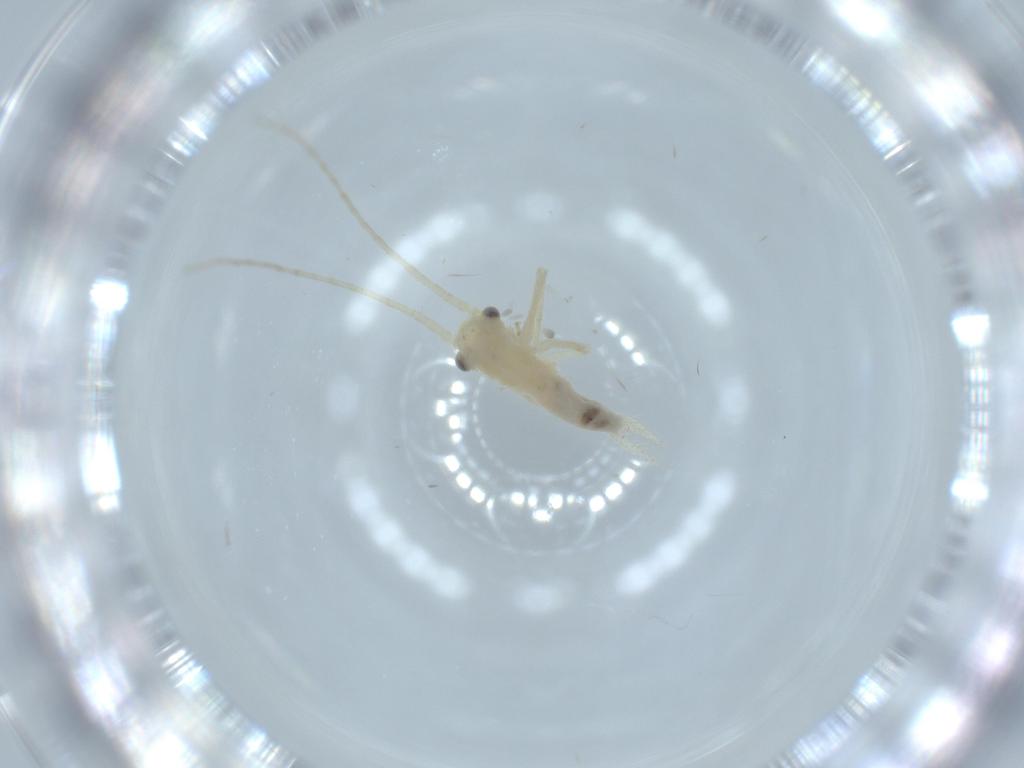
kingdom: Animalia
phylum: Arthropoda
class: Insecta
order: Orthoptera
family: Trigonidiidae
